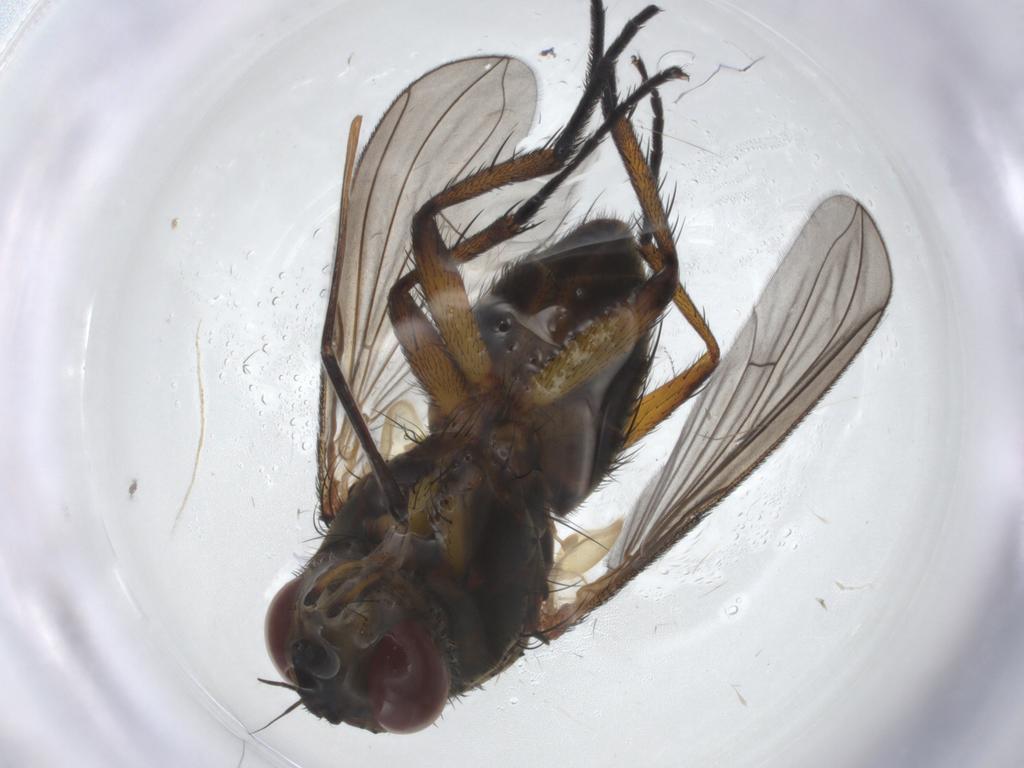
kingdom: Animalia
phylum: Arthropoda
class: Insecta
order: Diptera
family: Tachinidae
